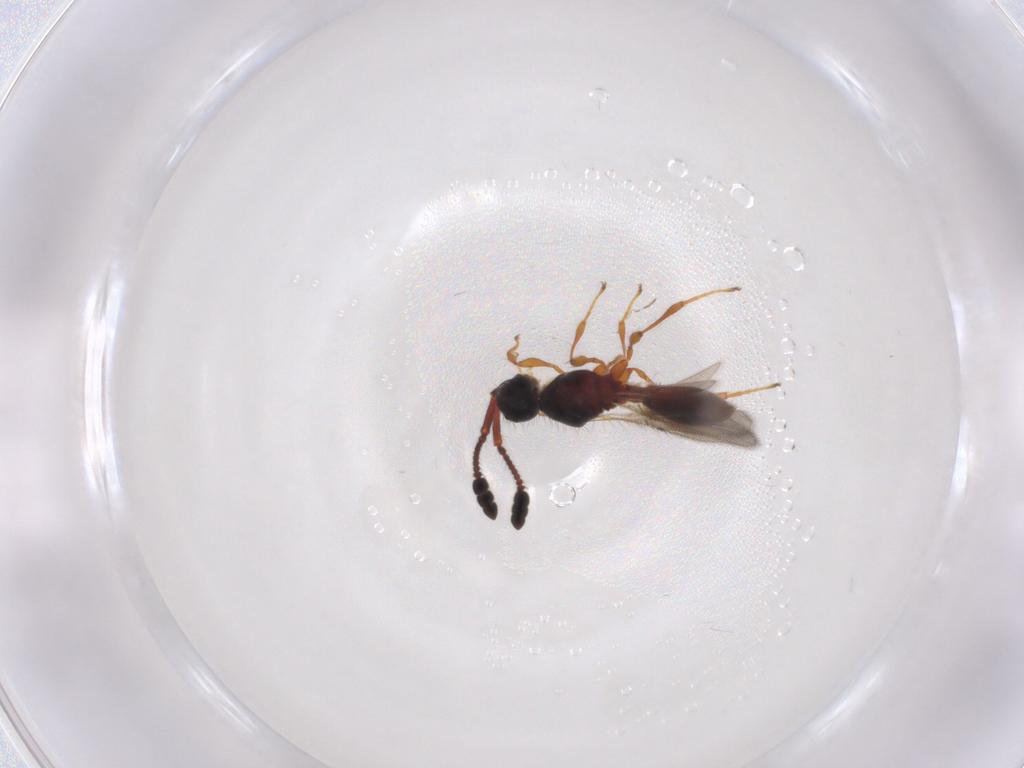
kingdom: Animalia
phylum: Arthropoda
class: Insecta
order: Hymenoptera
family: Diapriidae
